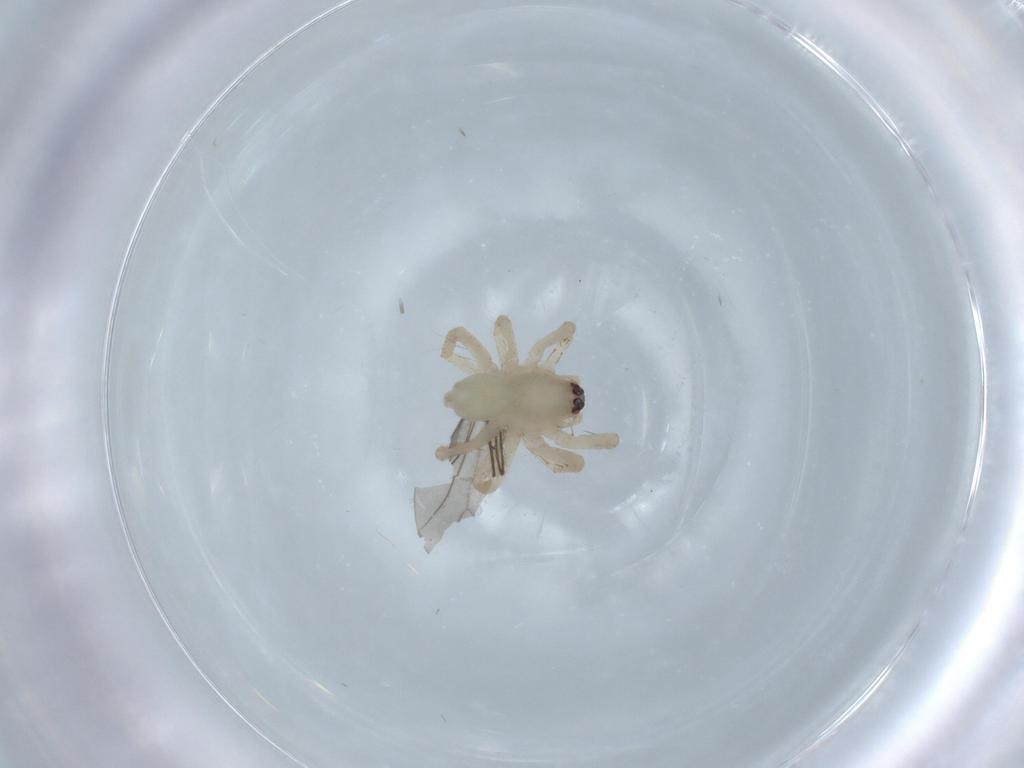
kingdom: Animalia
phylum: Arthropoda
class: Arachnida
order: Araneae
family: Anyphaenidae
